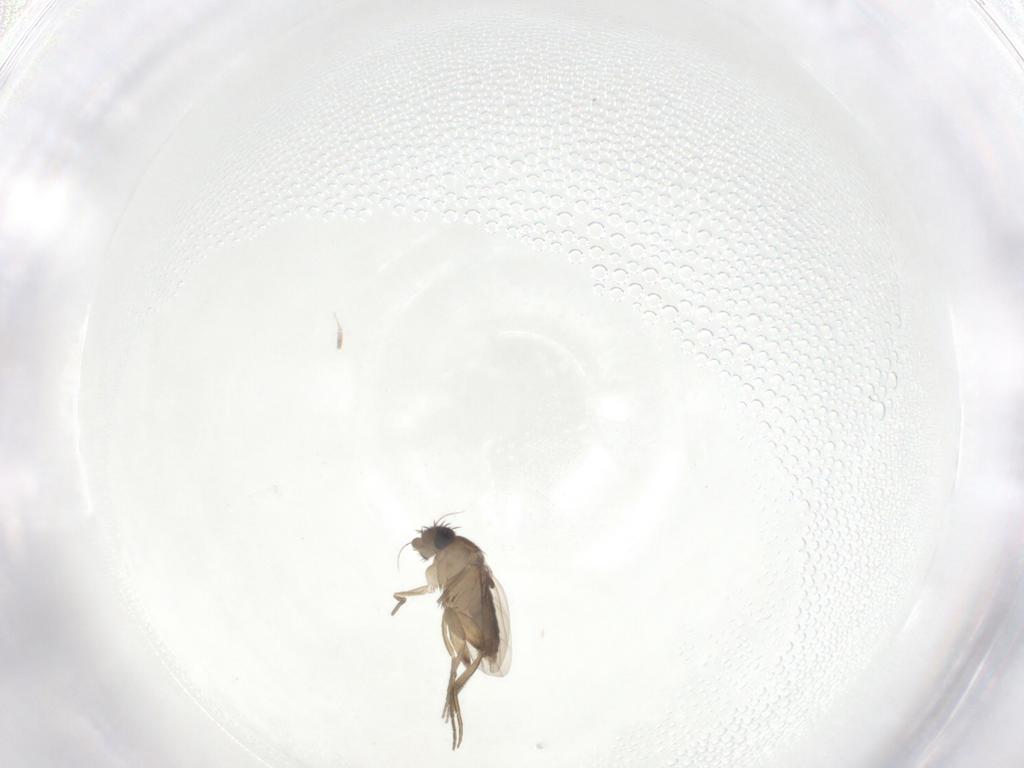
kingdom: Animalia
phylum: Arthropoda
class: Insecta
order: Diptera
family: Phoridae
